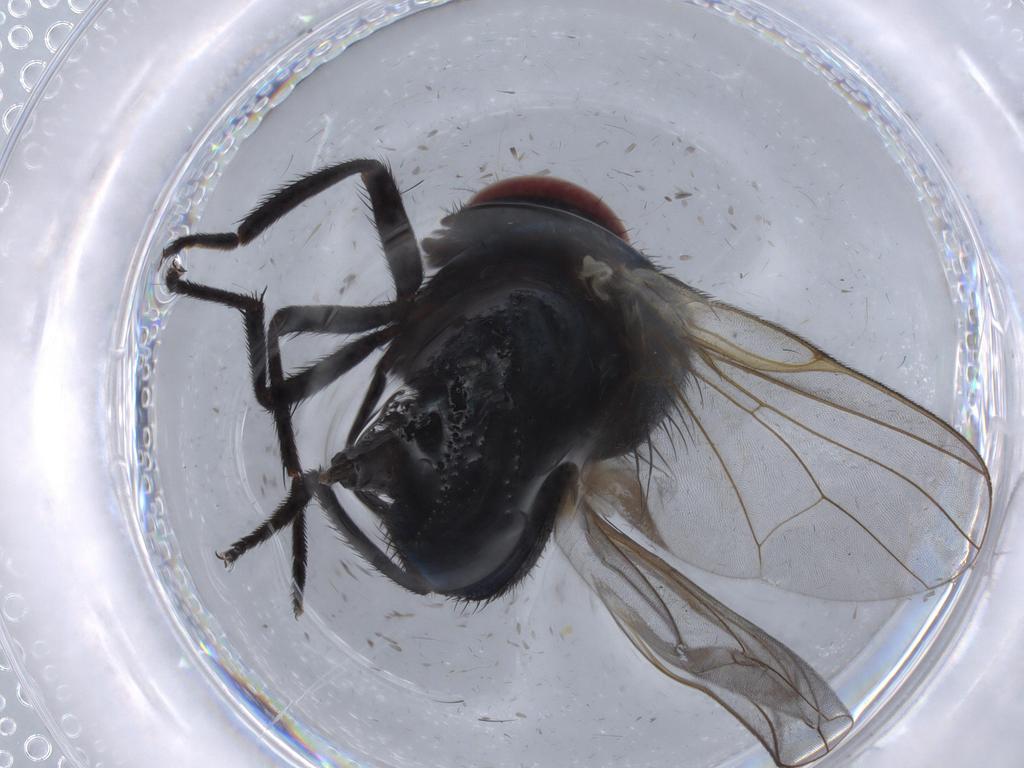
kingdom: Animalia
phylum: Arthropoda
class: Insecta
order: Diptera
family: Psychodidae
